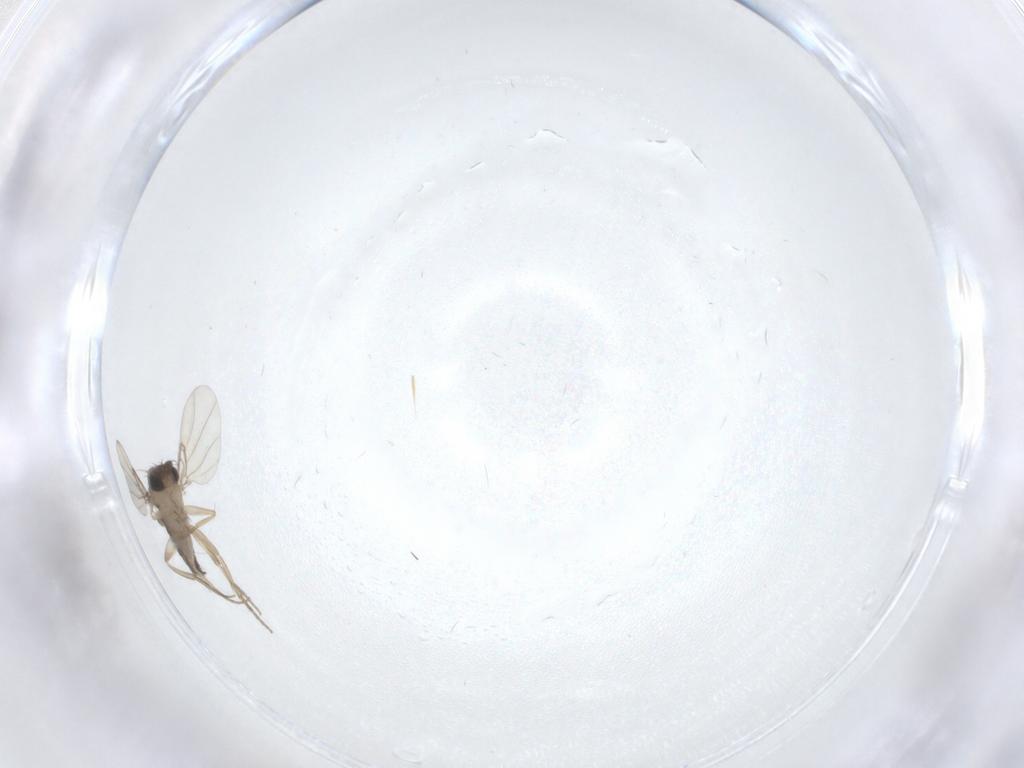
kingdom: Animalia
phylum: Arthropoda
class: Insecta
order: Diptera
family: Phoridae
